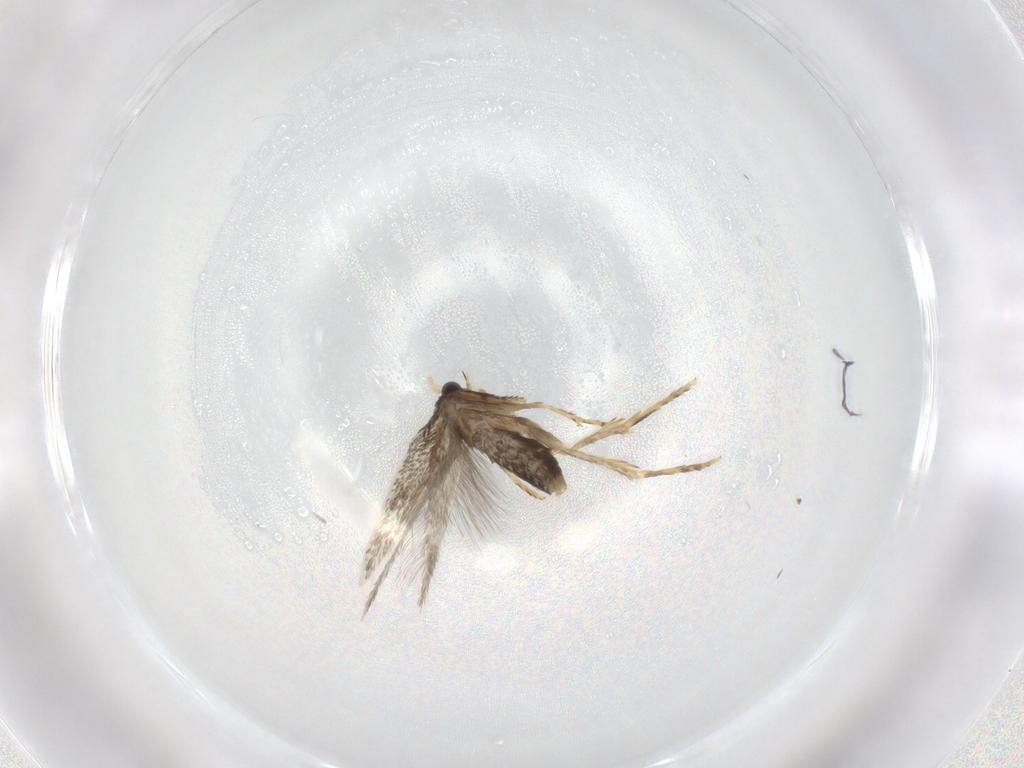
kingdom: Animalia
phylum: Arthropoda
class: Insecta
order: Lepidoptera
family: Nepticulidae
